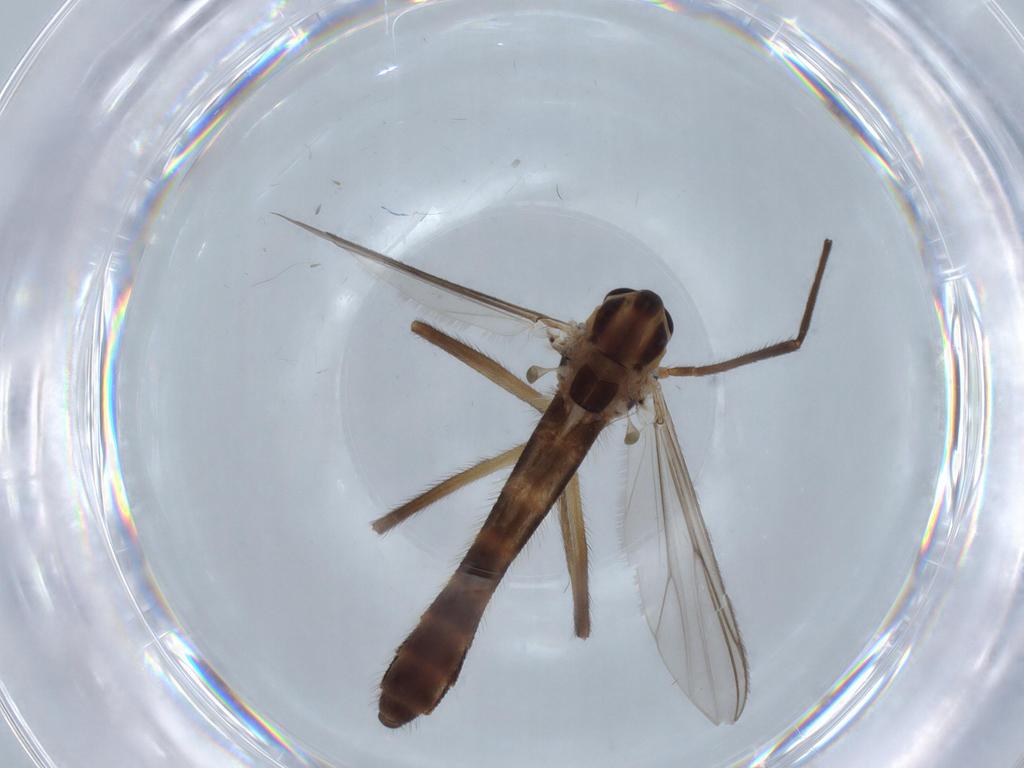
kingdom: Animalia
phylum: Arthropoda
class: Insecta
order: Diptera
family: Chironomidae
